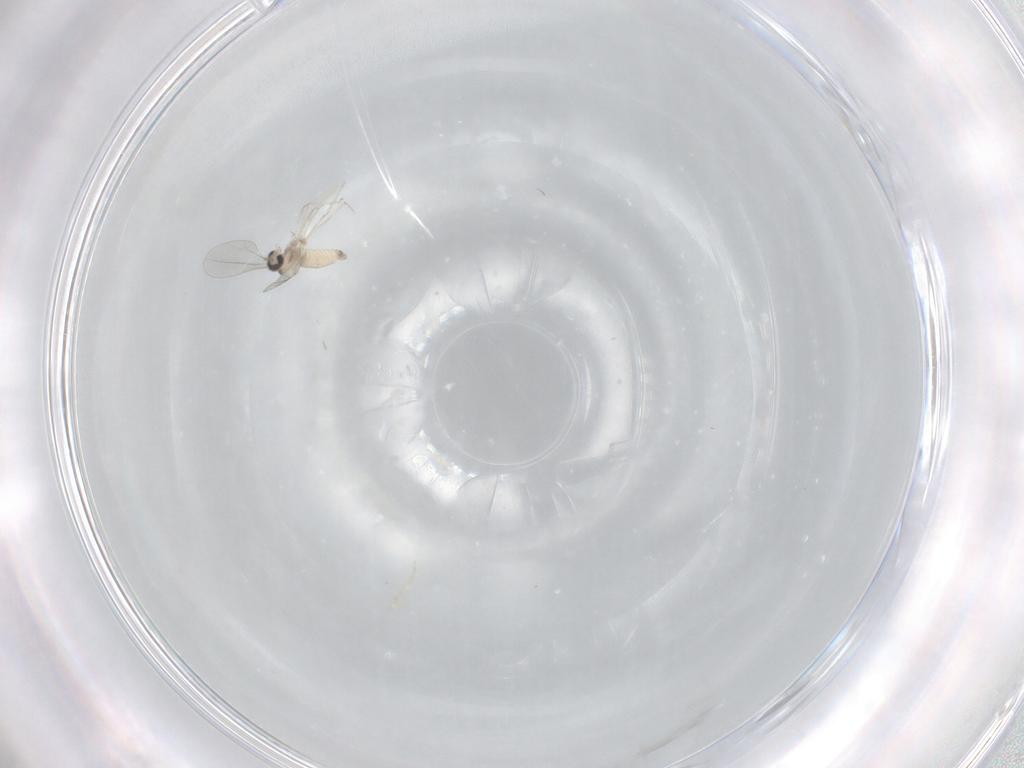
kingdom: Animalia
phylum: Arthropoda
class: Insecta
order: Diptera
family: Cecidomyiidae
